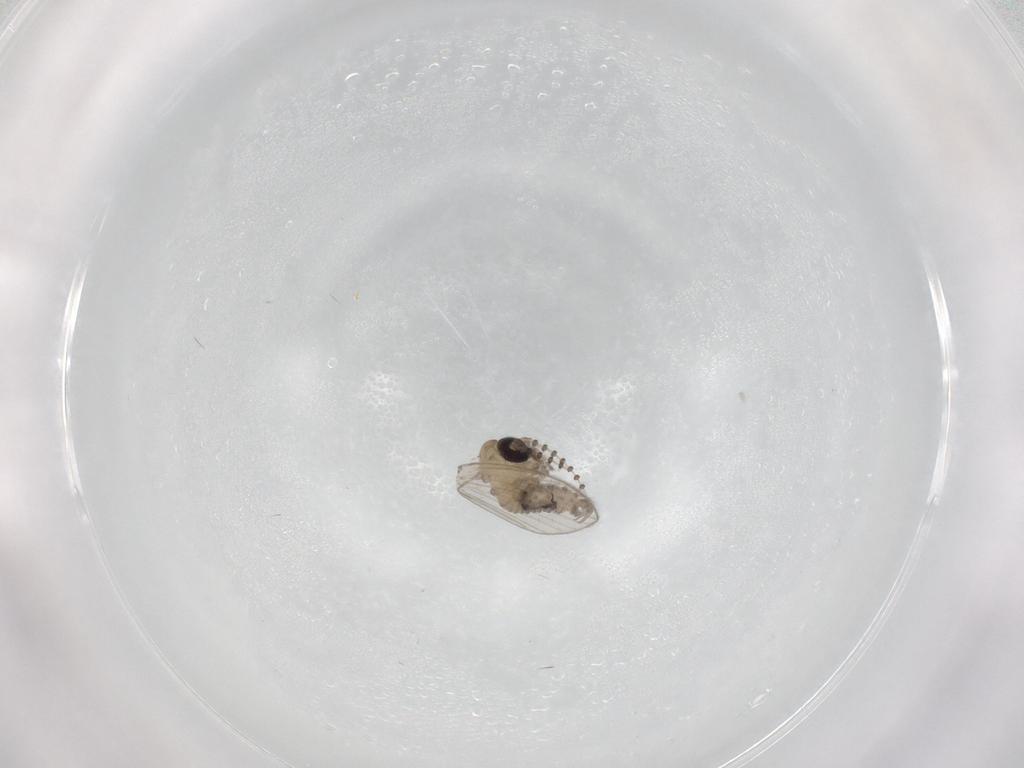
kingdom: Animalia
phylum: Arthropoda
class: Insecta
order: Diptera
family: Psychodidae
